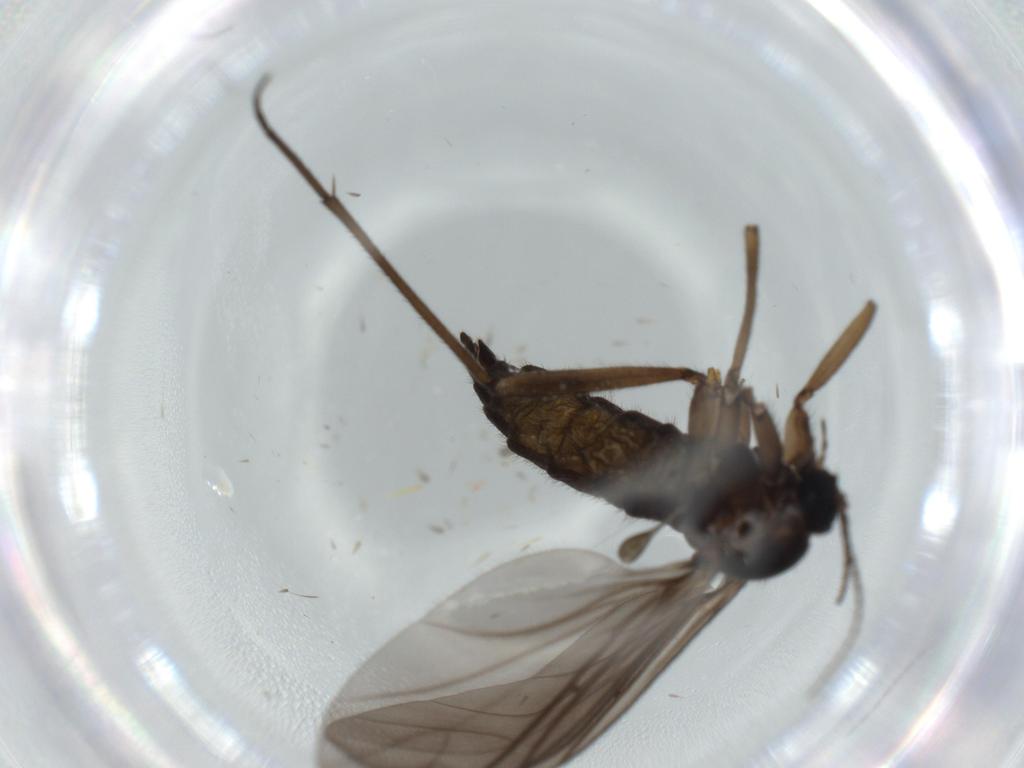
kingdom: Animalia
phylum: Arthropoda
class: Insecta
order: Diptera
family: Sciaridae
